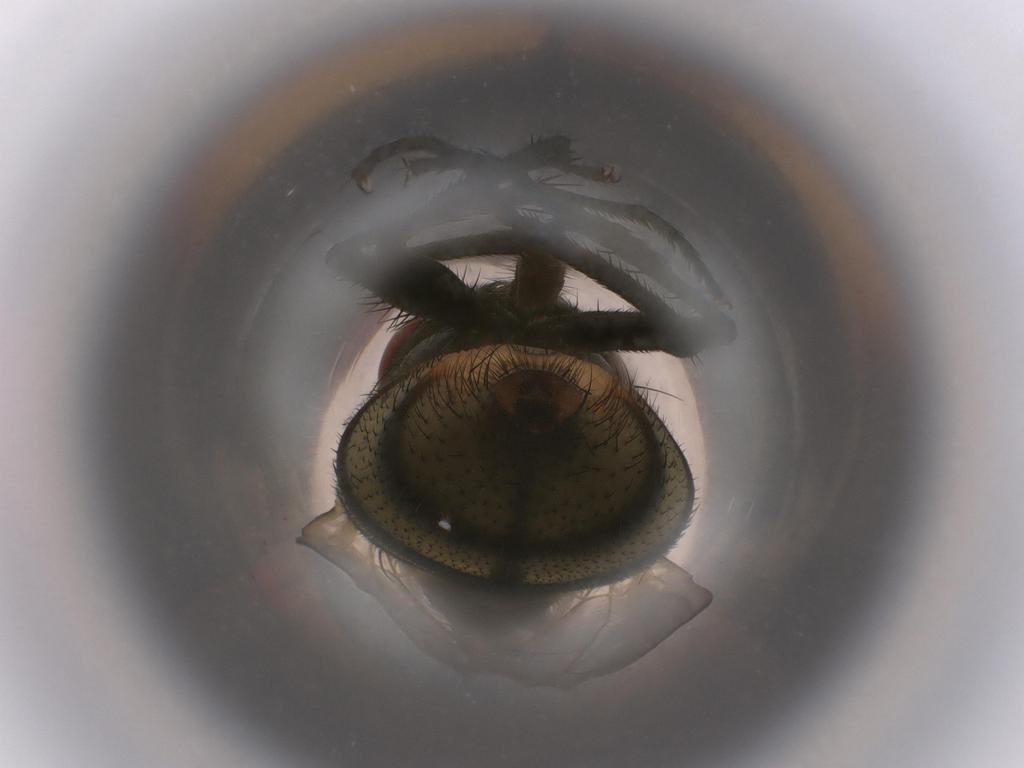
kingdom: Animalia
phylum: Arthropoda
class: Insecta
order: Diptera
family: Muscidae
